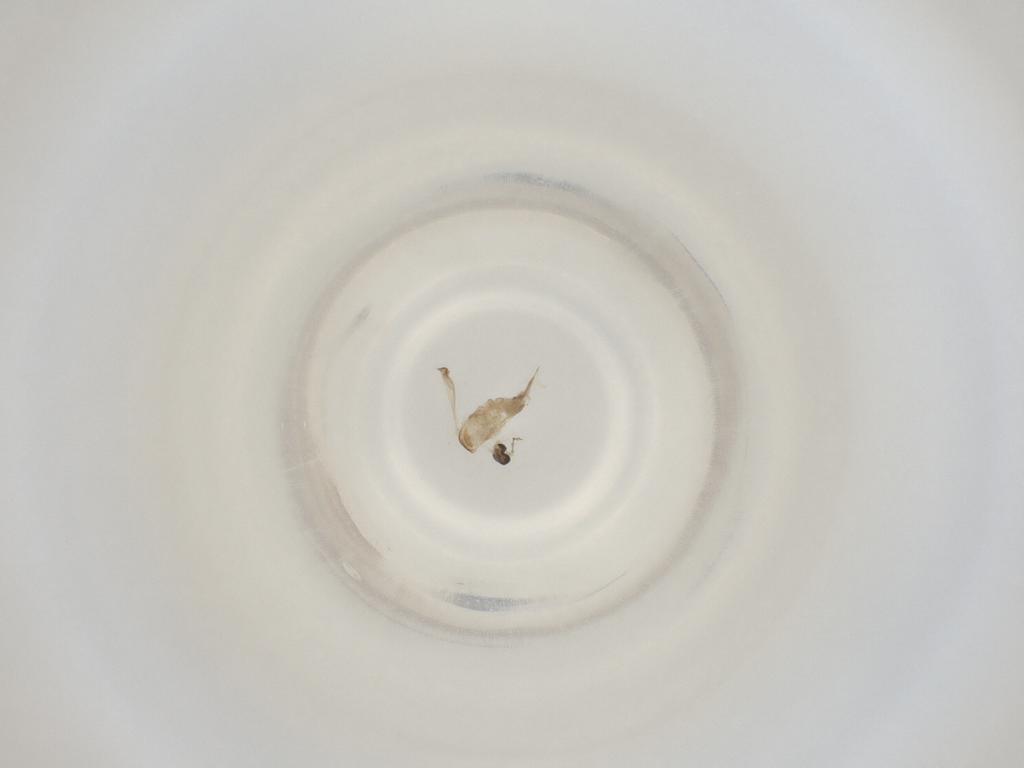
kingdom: Animalia
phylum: Arthropoda
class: Insecta
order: Diptera
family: Cecidomyiidae
